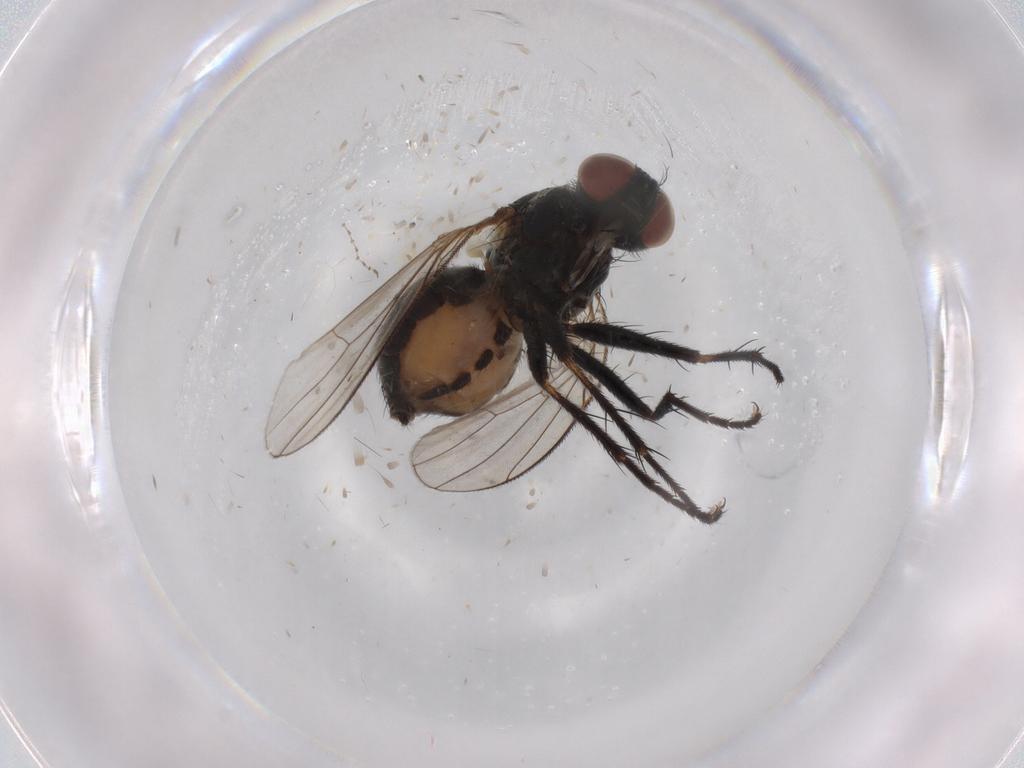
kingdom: Animalia
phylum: Arthropoda
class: Insecta
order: Diptera
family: Muscidae
